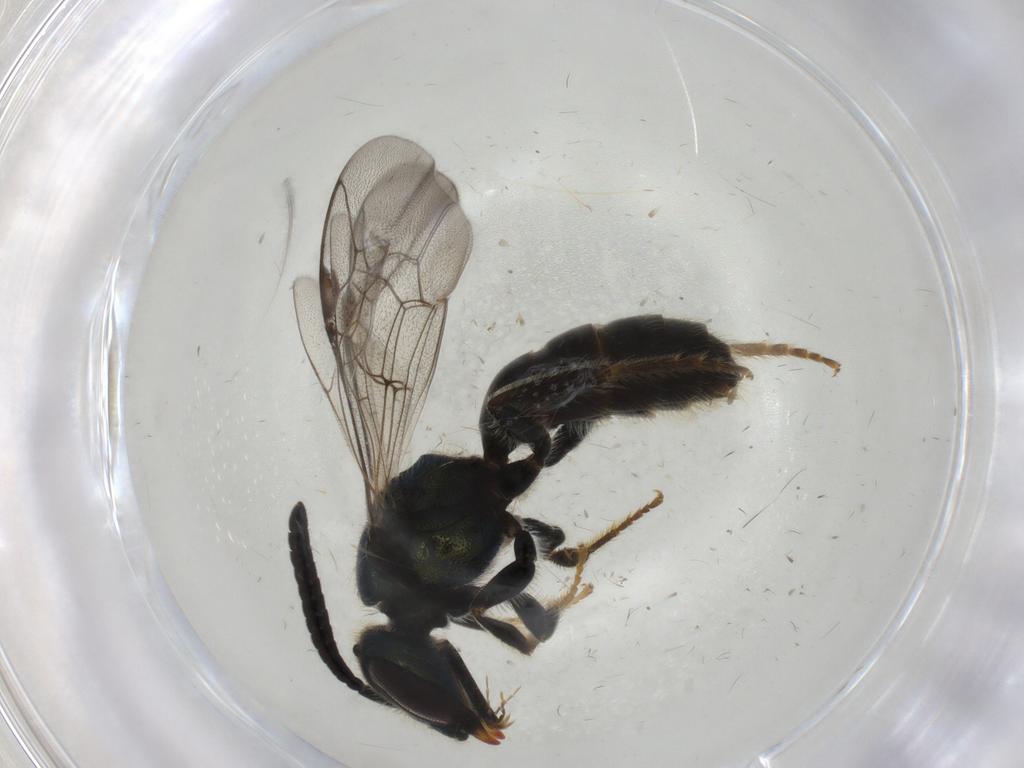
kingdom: Animalia
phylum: Arthropoda
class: Insecta
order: Hymenoptera
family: Halictidae
